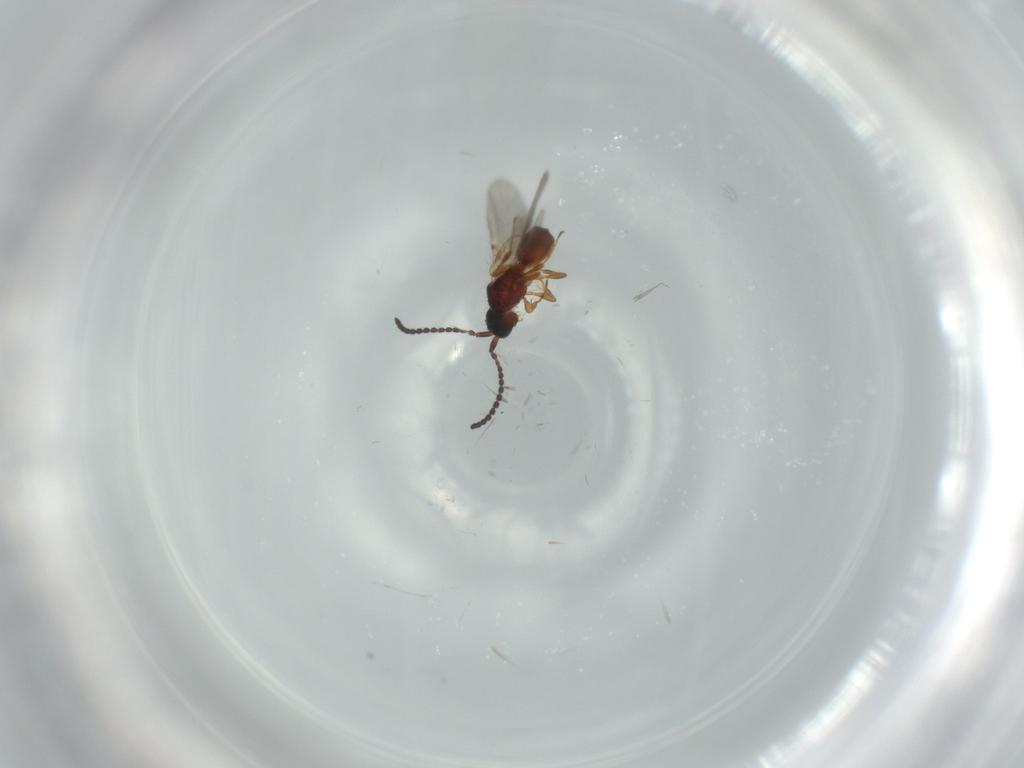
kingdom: Animalia
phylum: Arthropoda
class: Insecta
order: Hymenoptera
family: Diapriidae
